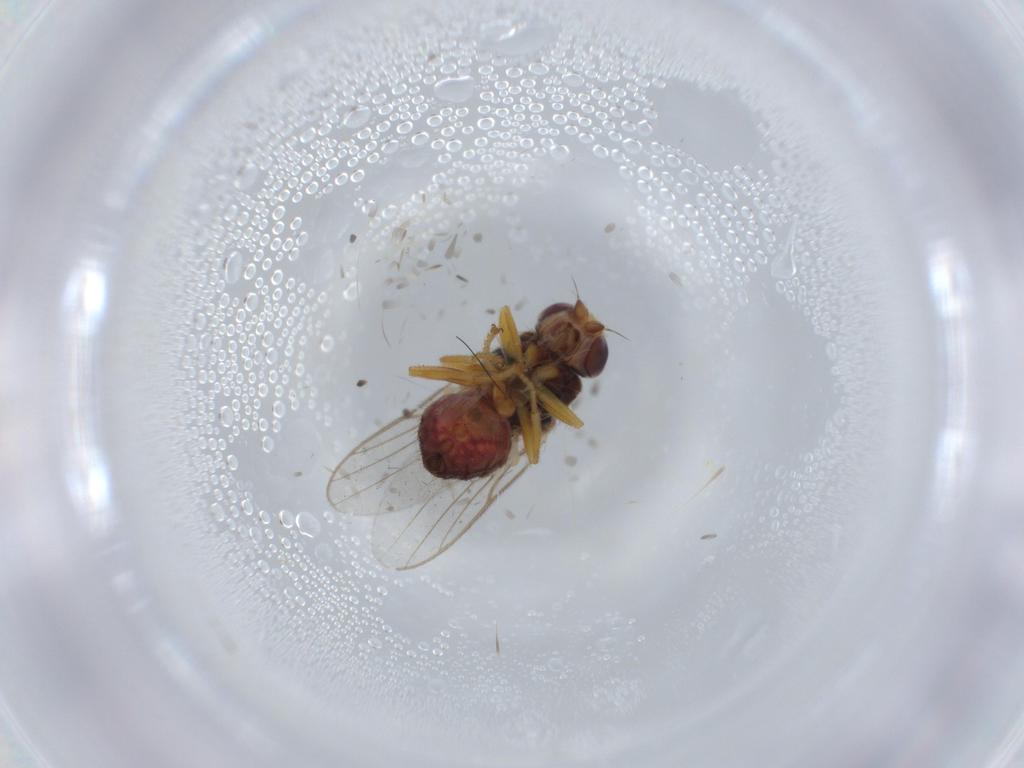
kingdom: Animalia
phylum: Arthropoda
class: Insecta
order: Diptera
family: Chloropidae
